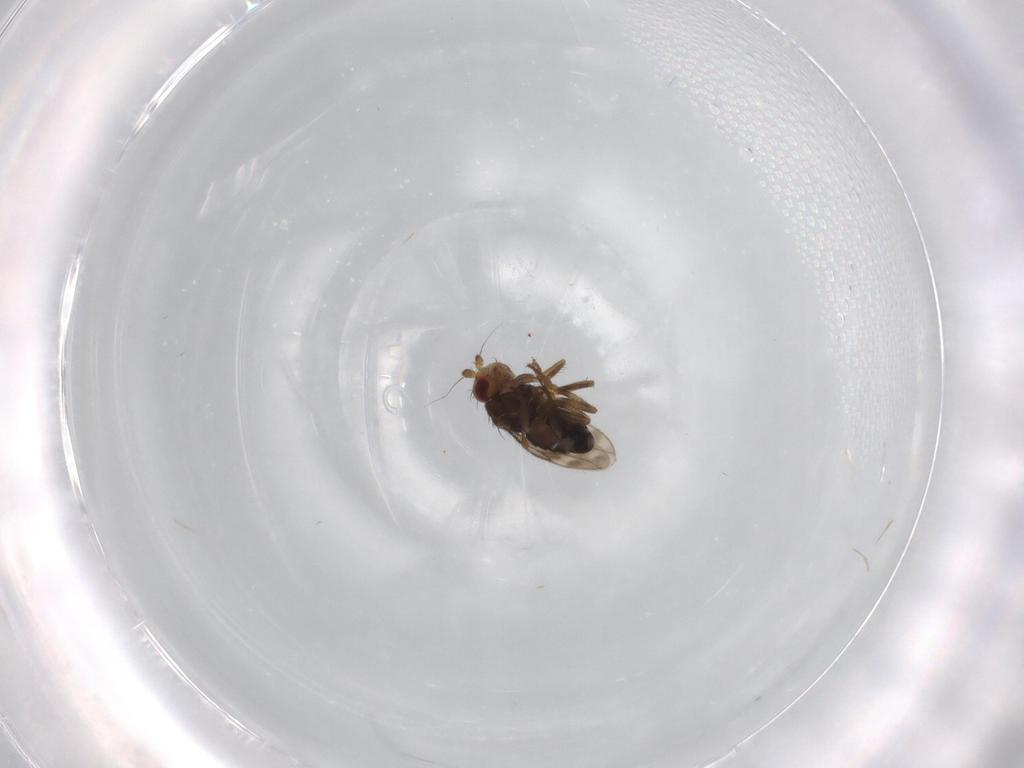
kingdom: Animalia
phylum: Arthropoda
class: Insecta
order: Diptera
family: Sphaeroceridae
